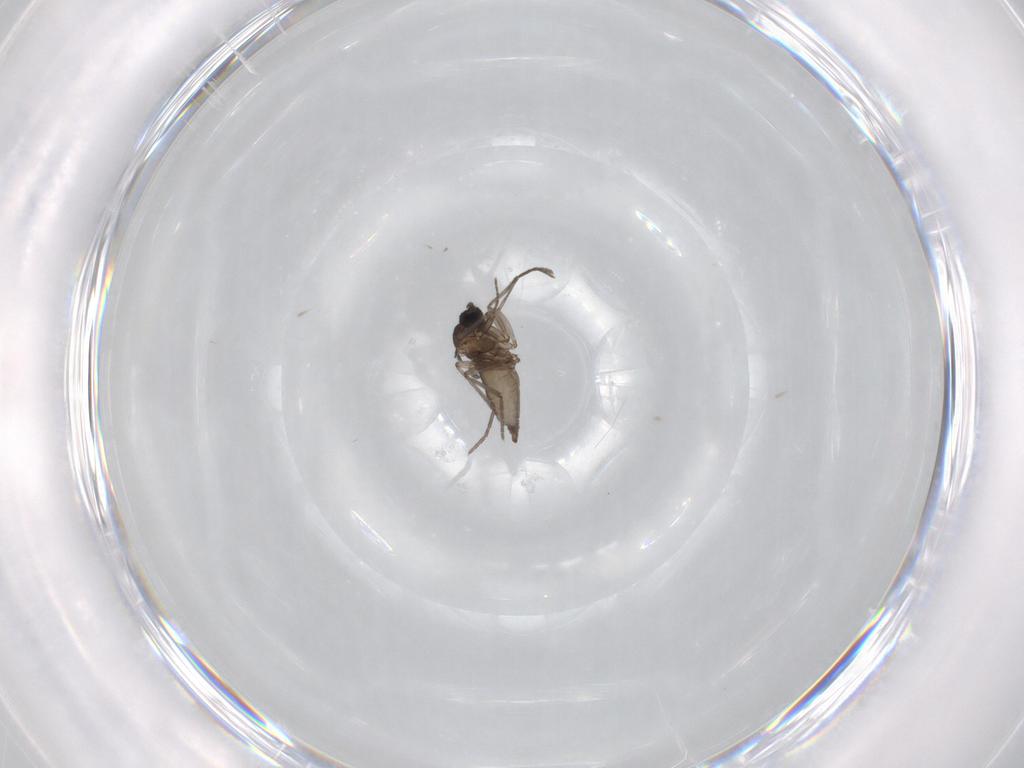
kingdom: Animalia
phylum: Arthropoda
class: Insecta
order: Diptera
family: Sciaridae
